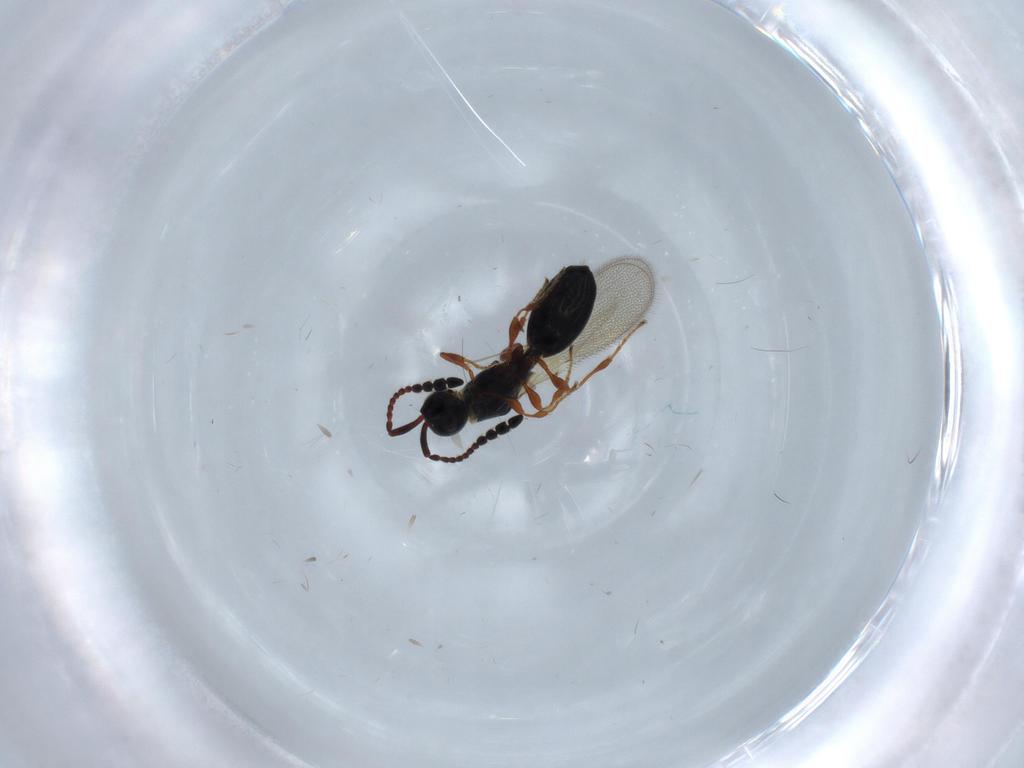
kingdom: Animalia
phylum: Arthropoda
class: Insecta
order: Hymenoptera
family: Diapriidae
